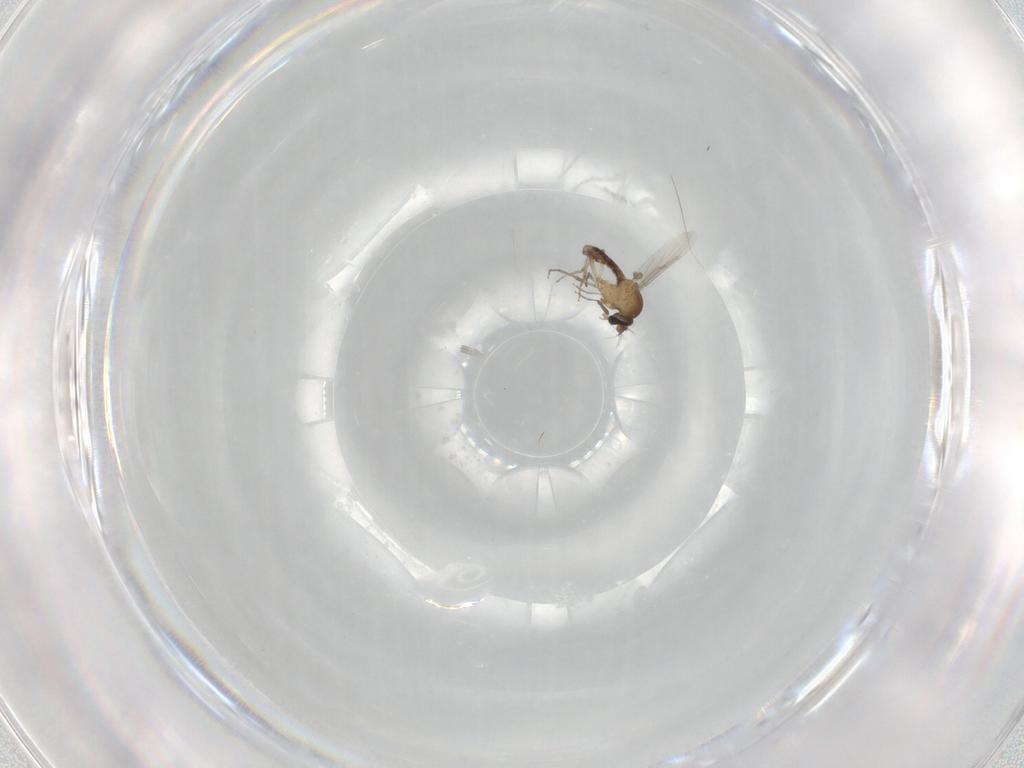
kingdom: Animalia
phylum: Arthropoda
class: Insecta
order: Diptera
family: Ceratopogonidae
